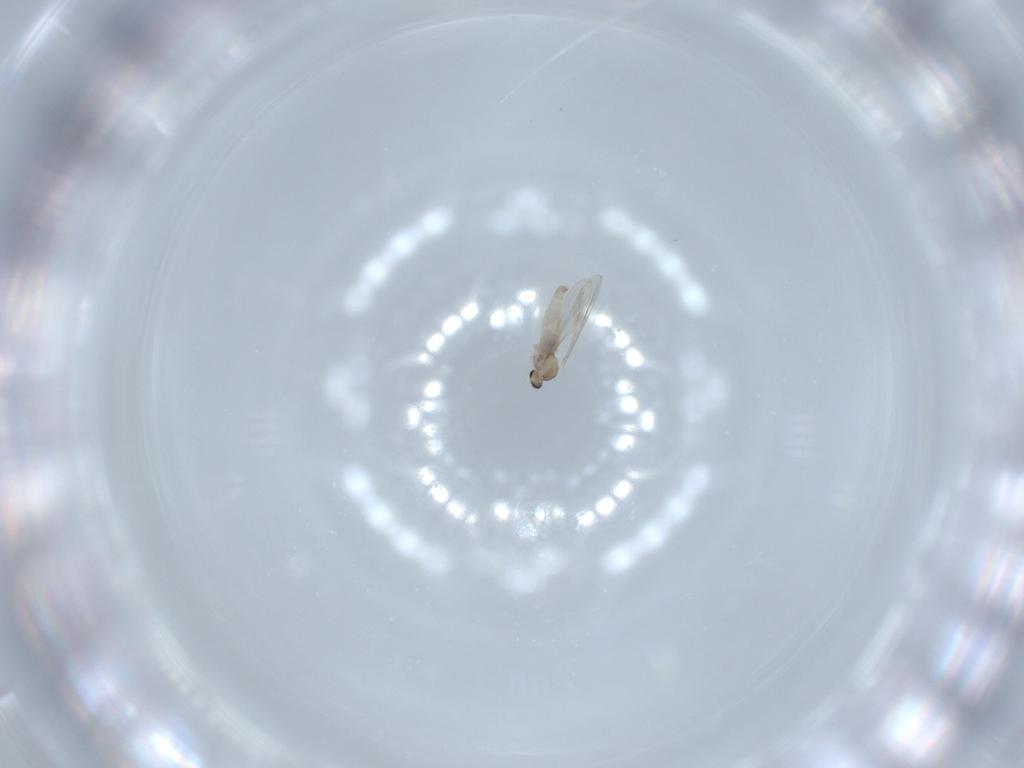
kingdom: Animalia
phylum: Arthropoda
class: Insecta
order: Diptera
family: Cecidomyiidae
